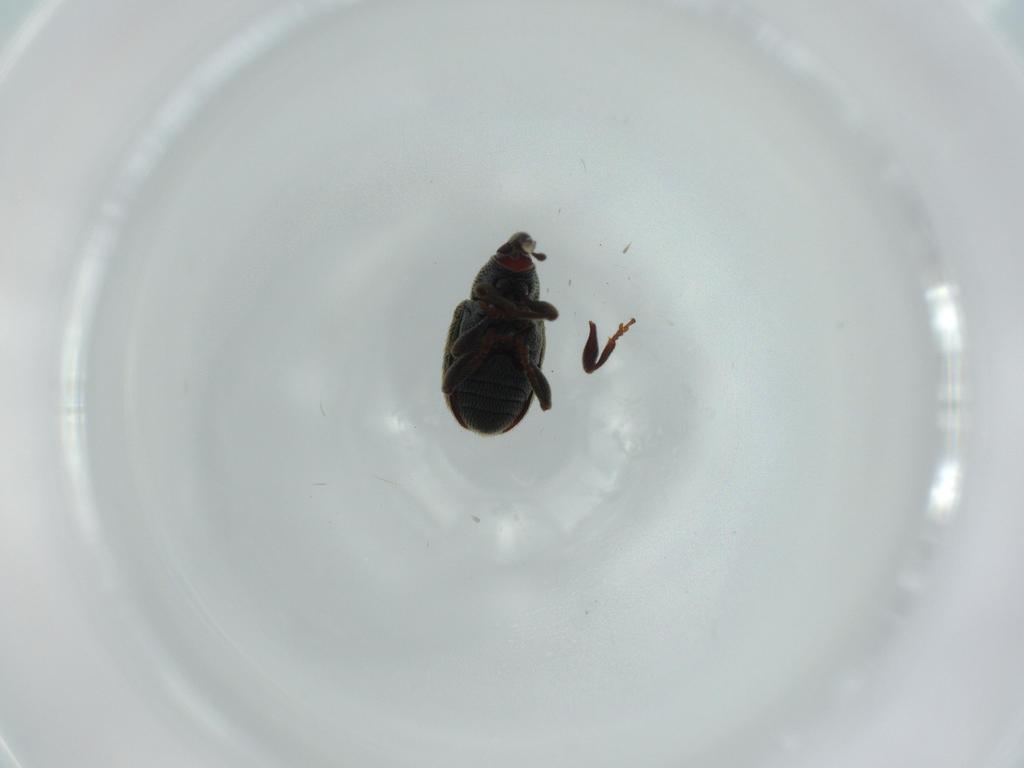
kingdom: Animalia
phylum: Arthropoda
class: Insecta
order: Coleoptera
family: Curculionidae
